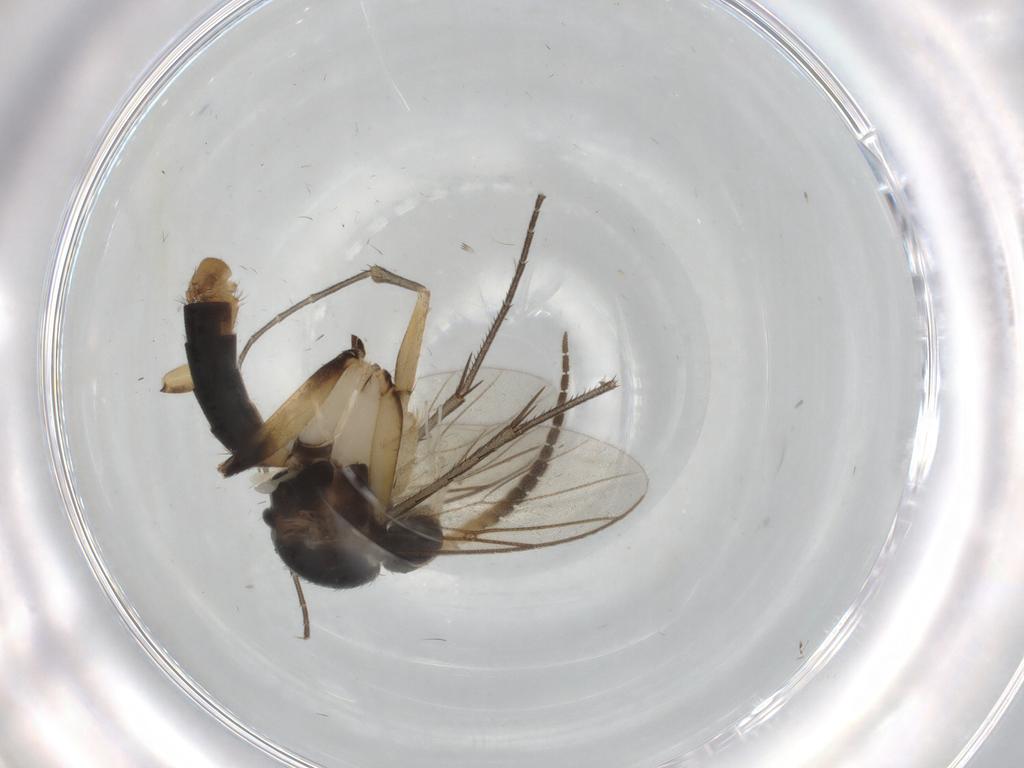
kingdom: Animalia
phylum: Arthropoda
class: Insecta
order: Diptera
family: Mycetophilidae
